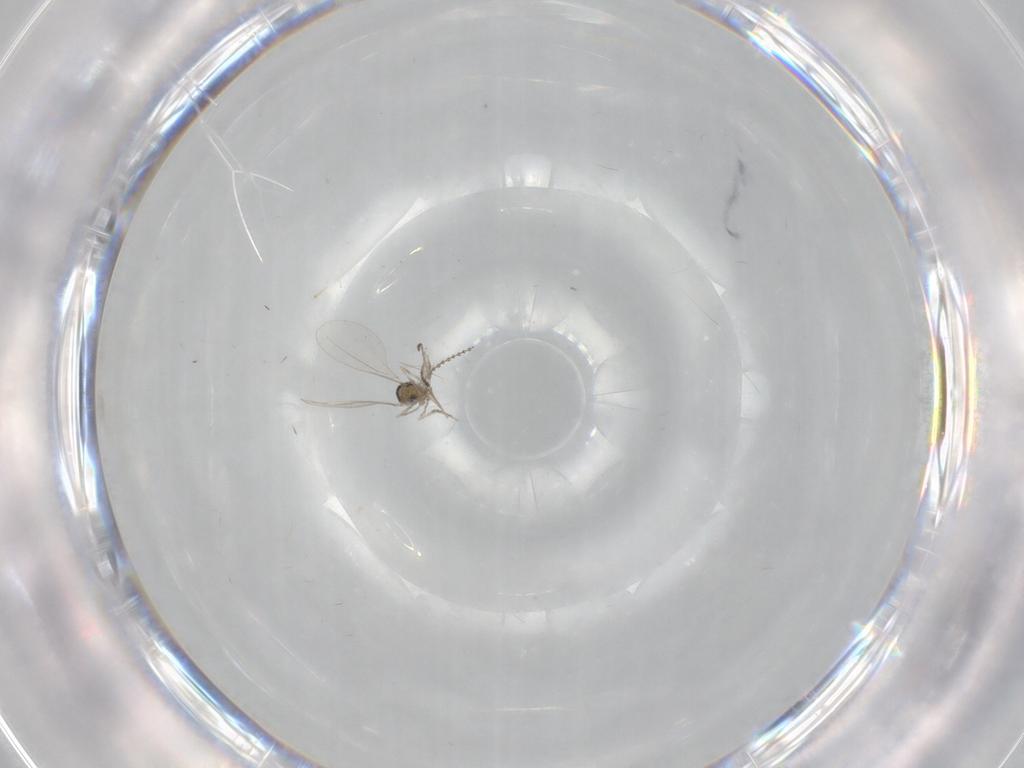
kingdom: Animalia
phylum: Arthropoda
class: Insecta
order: Diptera
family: Cecidomyiidae
